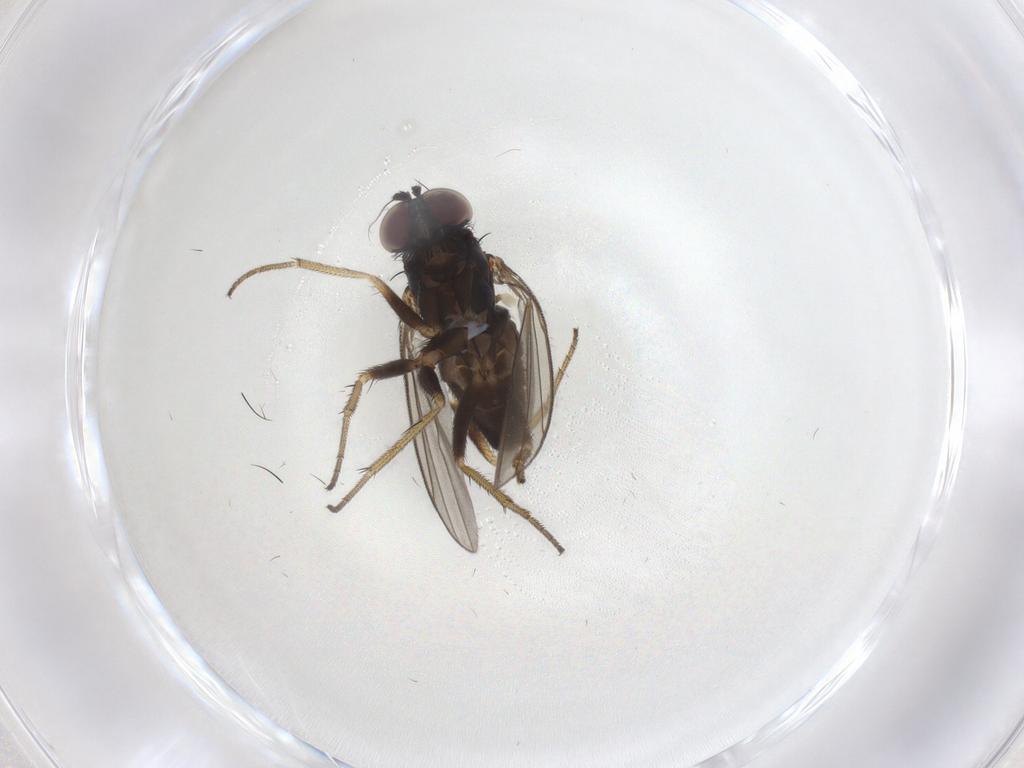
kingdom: Animalia
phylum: Arthropoda
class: Insecta
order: Diptera
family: Dolichopodidae
